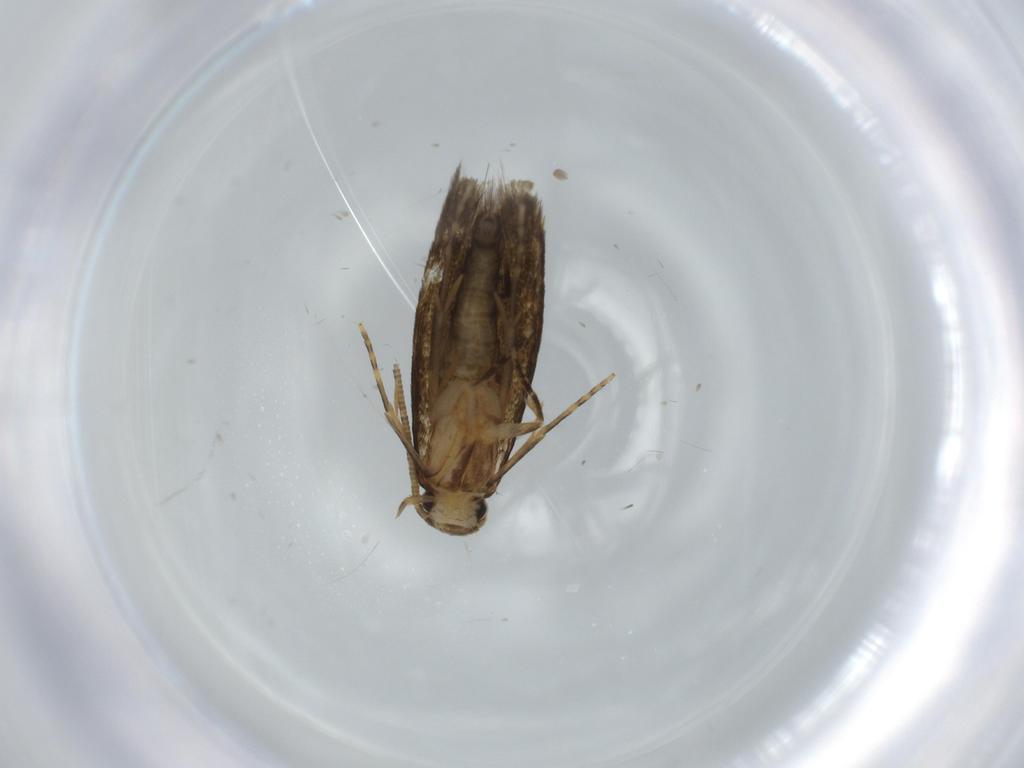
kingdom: Animalia
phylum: Arthropoda
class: Insecta
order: Lepidoptera
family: Tineidae
